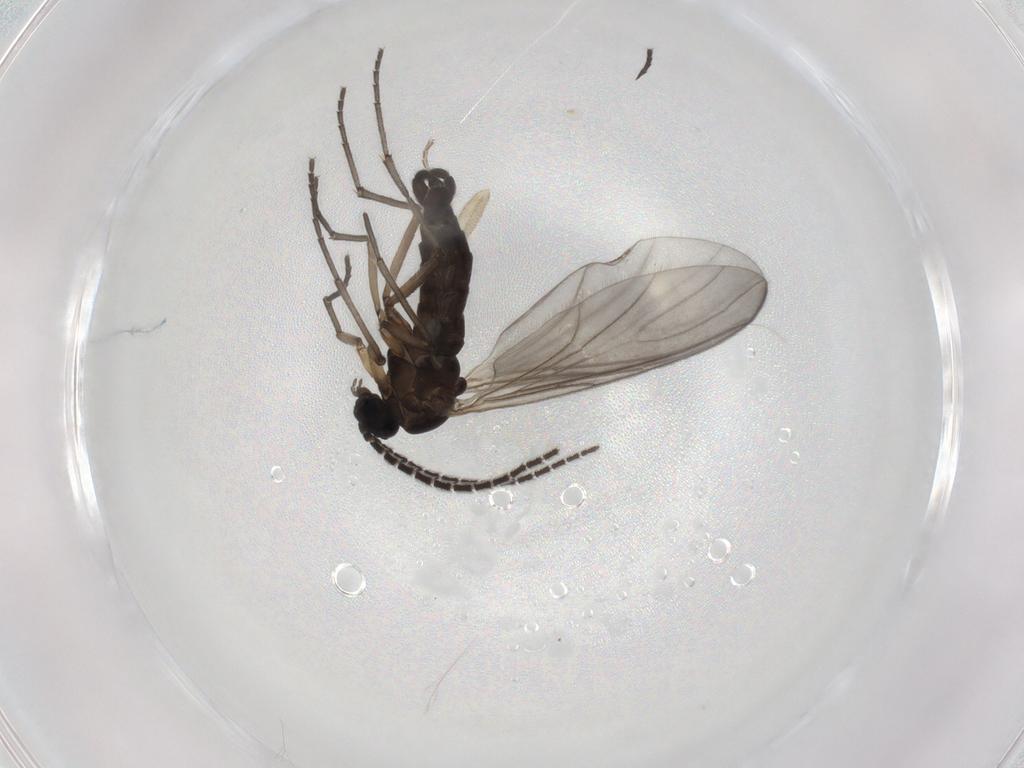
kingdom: Animalia
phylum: Arthropoda
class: Insecta
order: Diptera
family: Sciaridae
